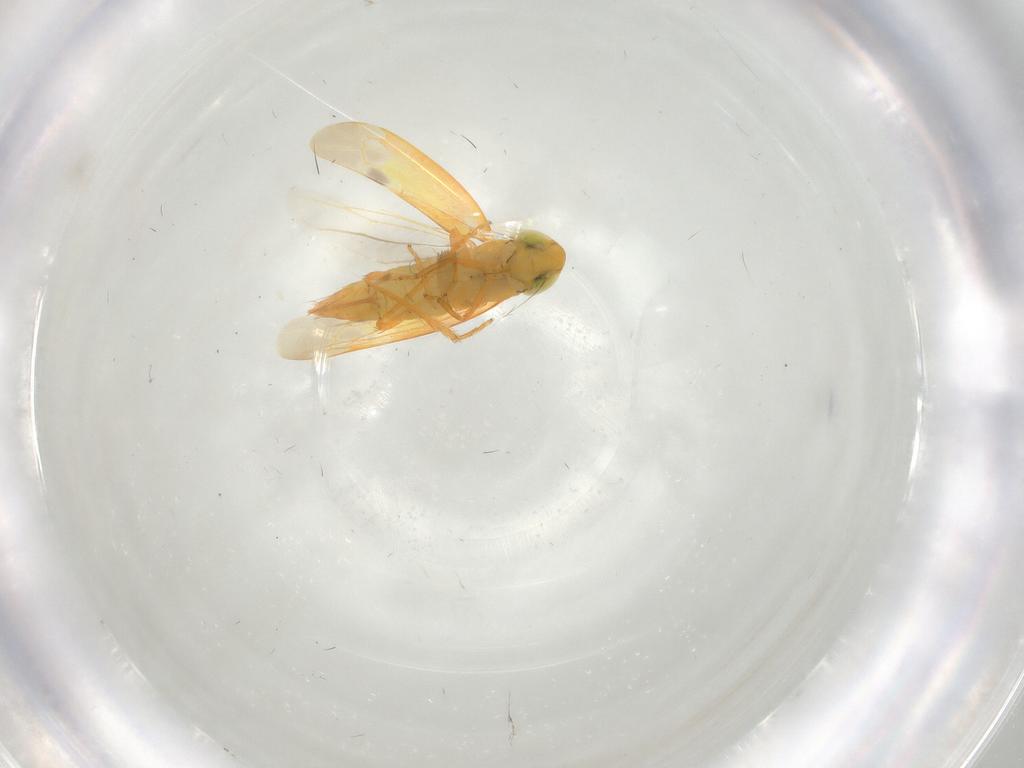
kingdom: Animalia
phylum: Arthropoda
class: Insecta
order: Hemiptera
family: Cicadellidae
